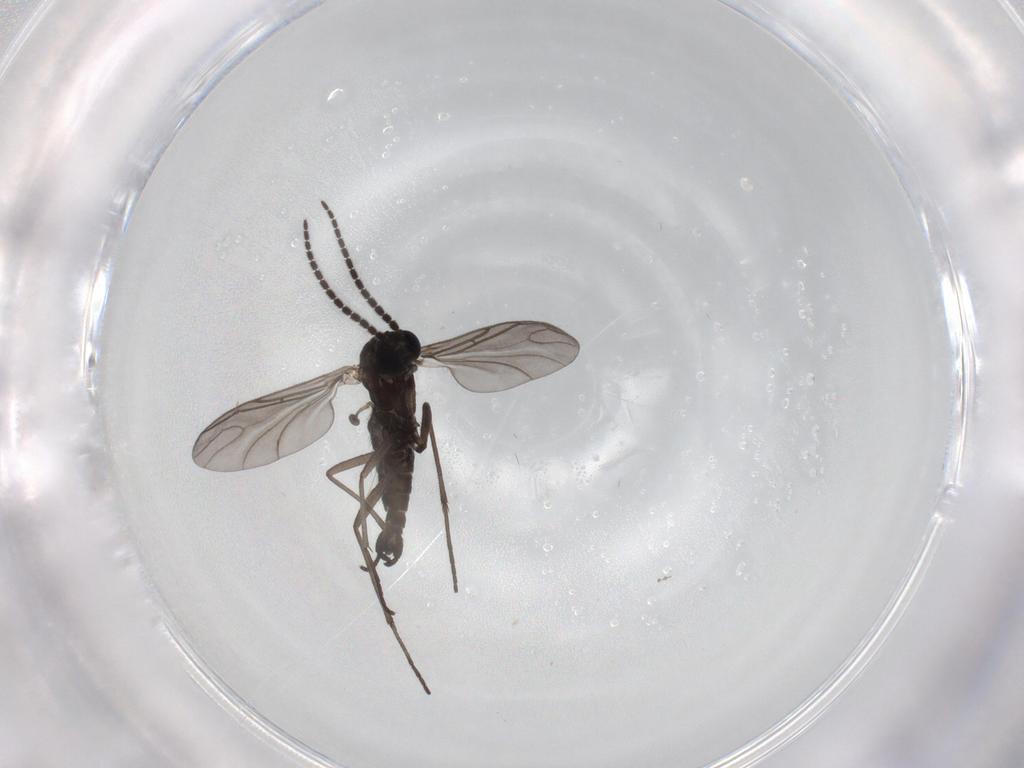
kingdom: Animalia
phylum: Arthropoda
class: Insecta
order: Diptera
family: Sciaridae
